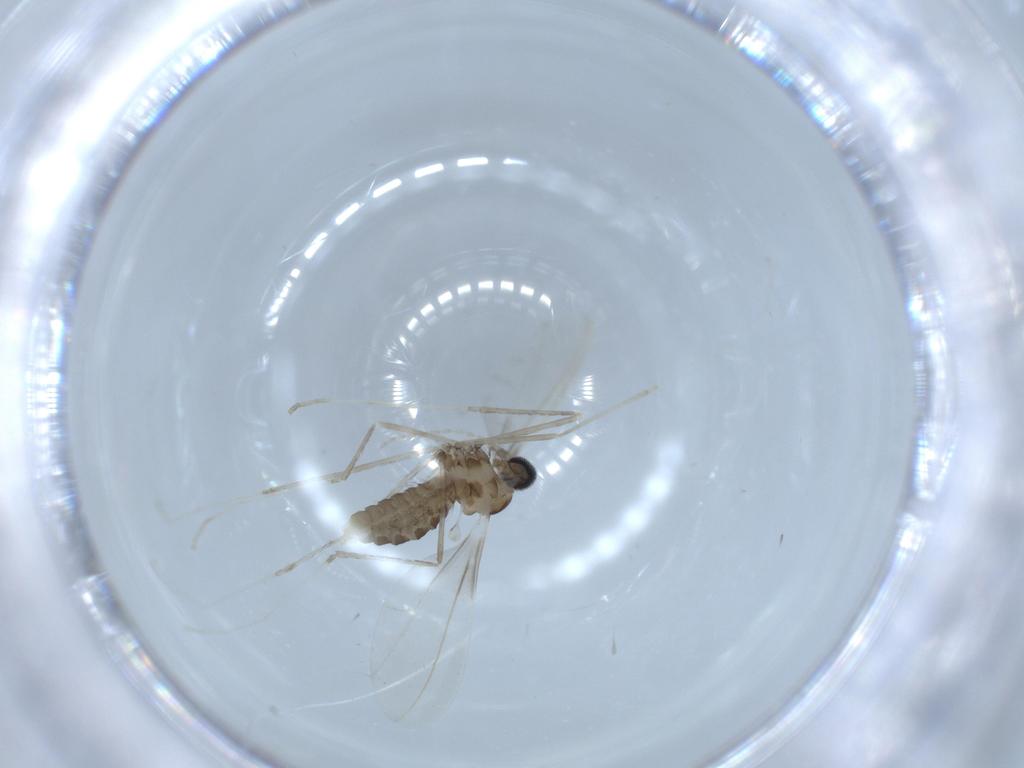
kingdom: Animalia
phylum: Arthropoda
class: Insecta
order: Diptera
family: Cecidomyiidae
